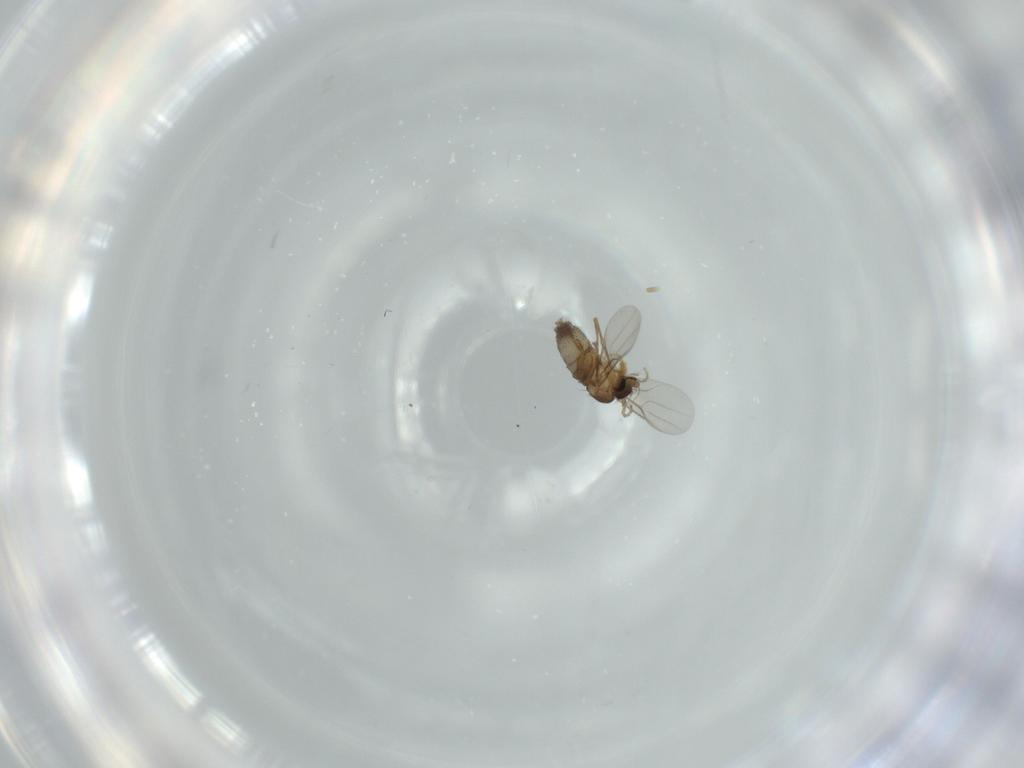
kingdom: Animalia
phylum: Arthropoda
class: Insecta
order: Diptera
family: Phoridae
